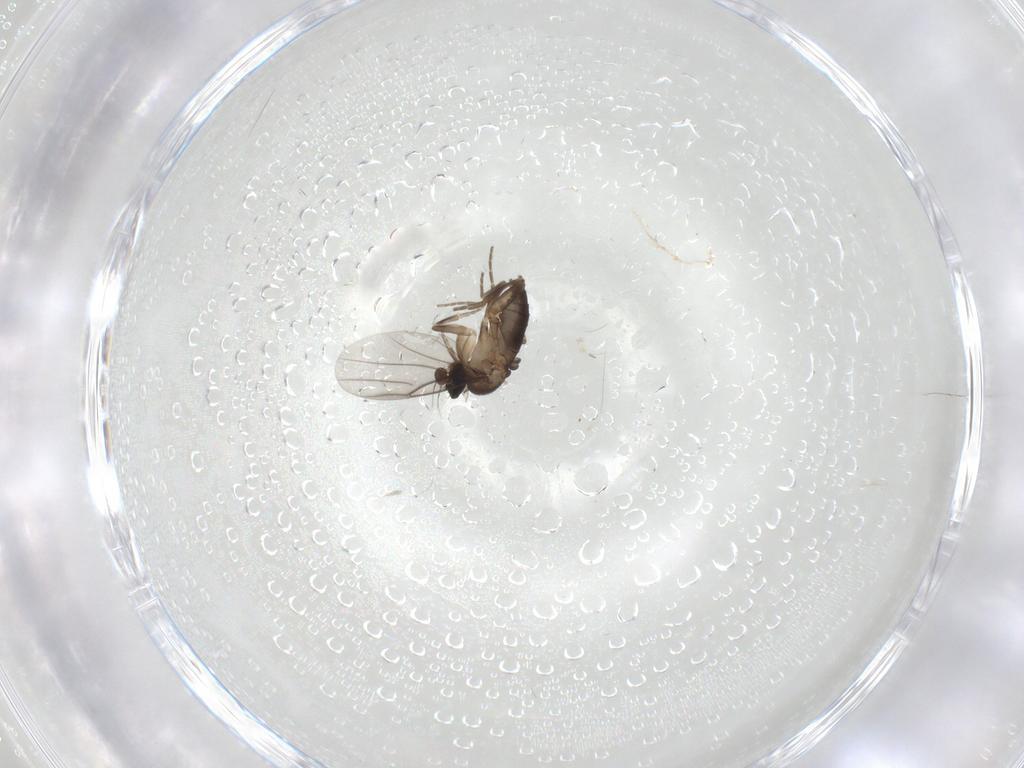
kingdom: Animalia
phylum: Arthropoda
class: Insecta
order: Diptera
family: Phoridae
